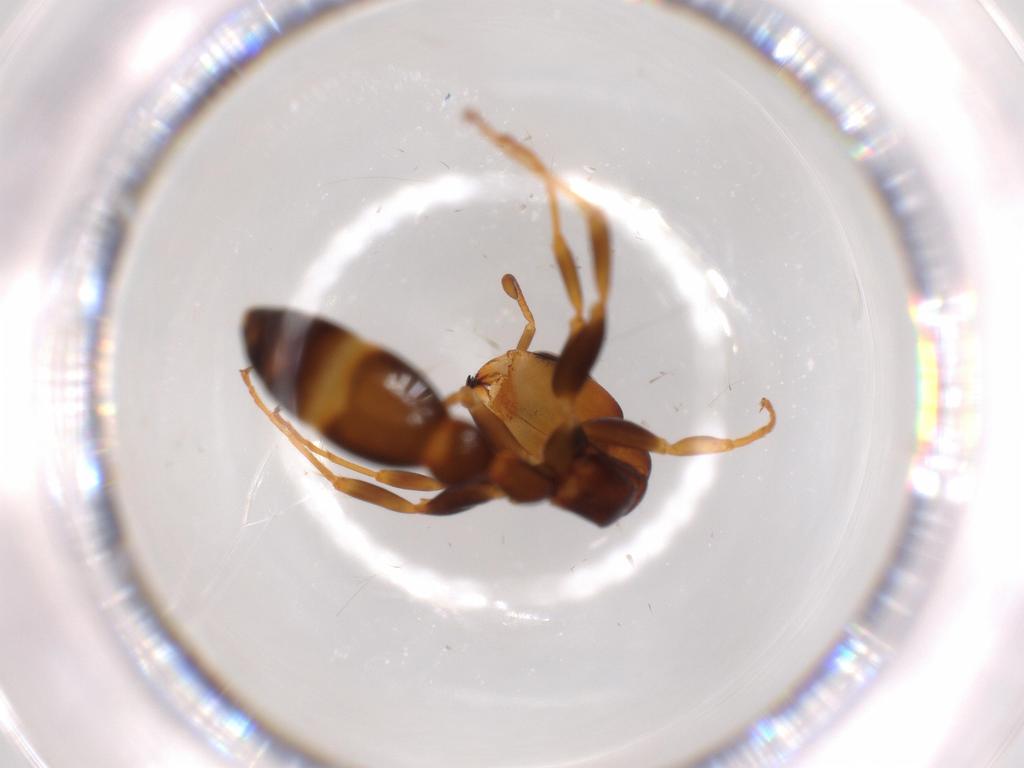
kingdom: Animalia
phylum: Arthropoda
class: Insecta
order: Hymenoptera
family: Formicidae
